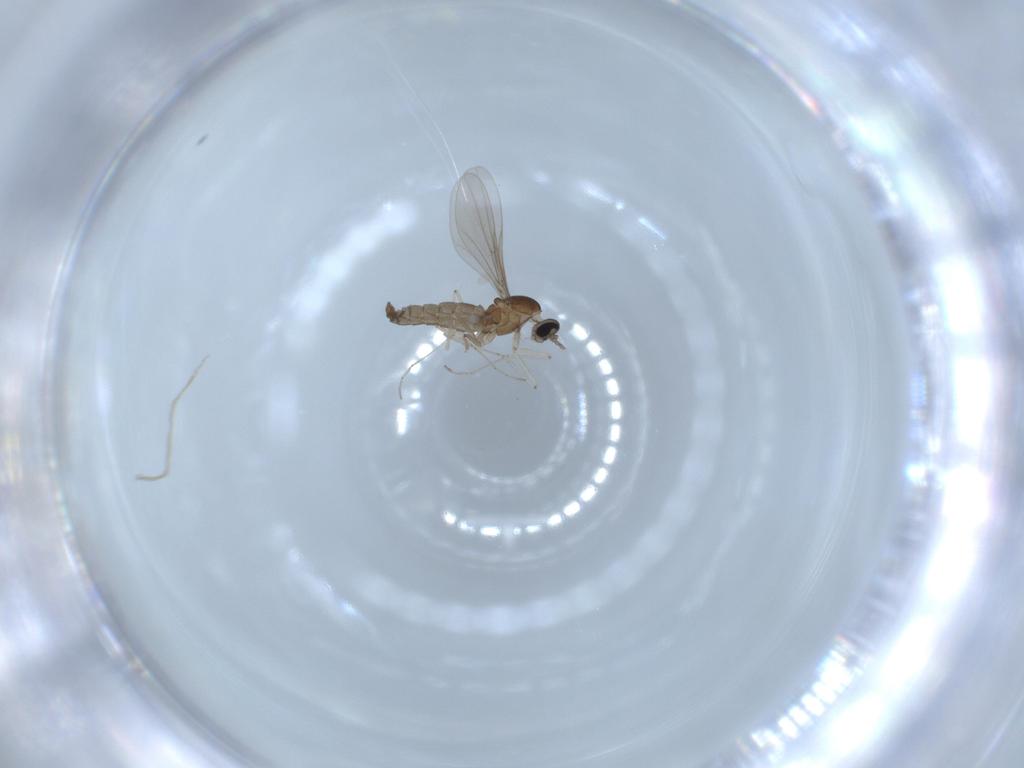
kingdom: Animalia
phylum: Arthropoda
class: Insecta
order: Diptera
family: Cecidomyiidae
